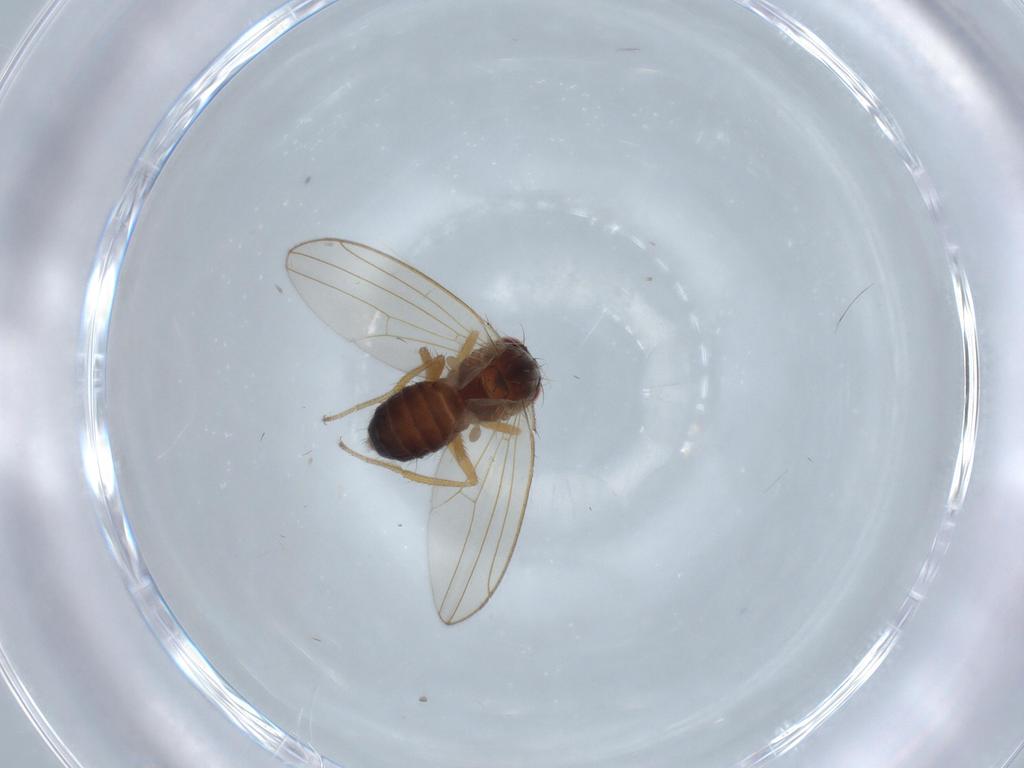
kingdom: Animalia
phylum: Arthropoda
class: Insecta
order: Diptera
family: Drosophilidae
